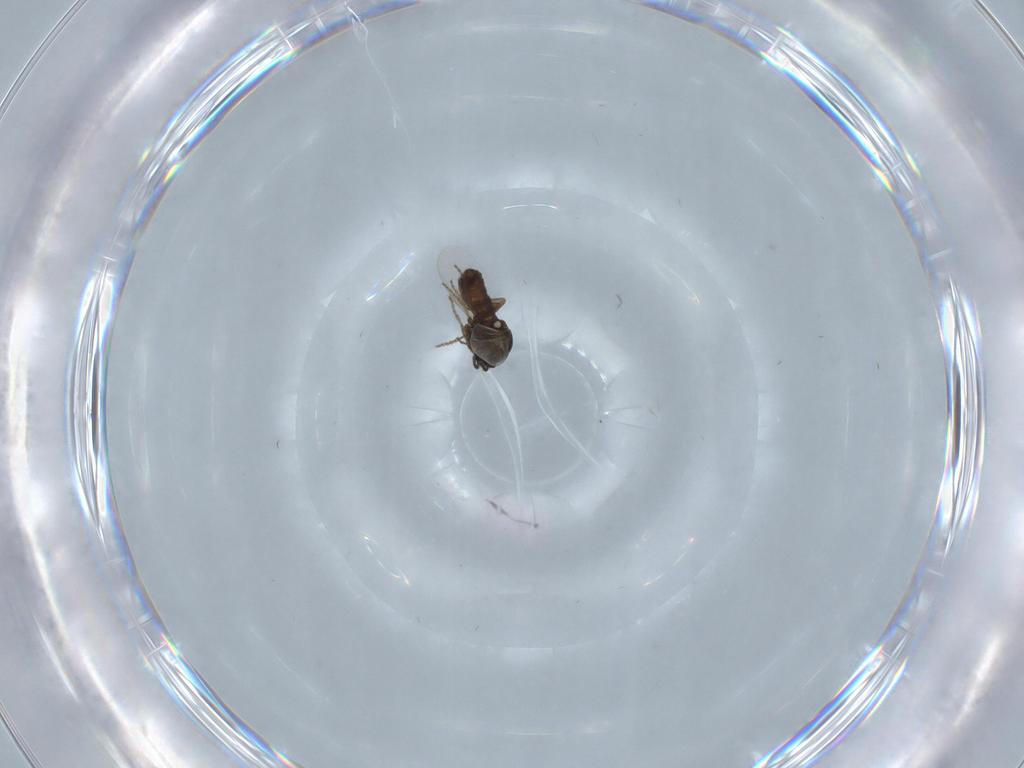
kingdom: Animalia
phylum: Arthropoda
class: Insecta
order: Diptera
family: Ceratopogonidae
